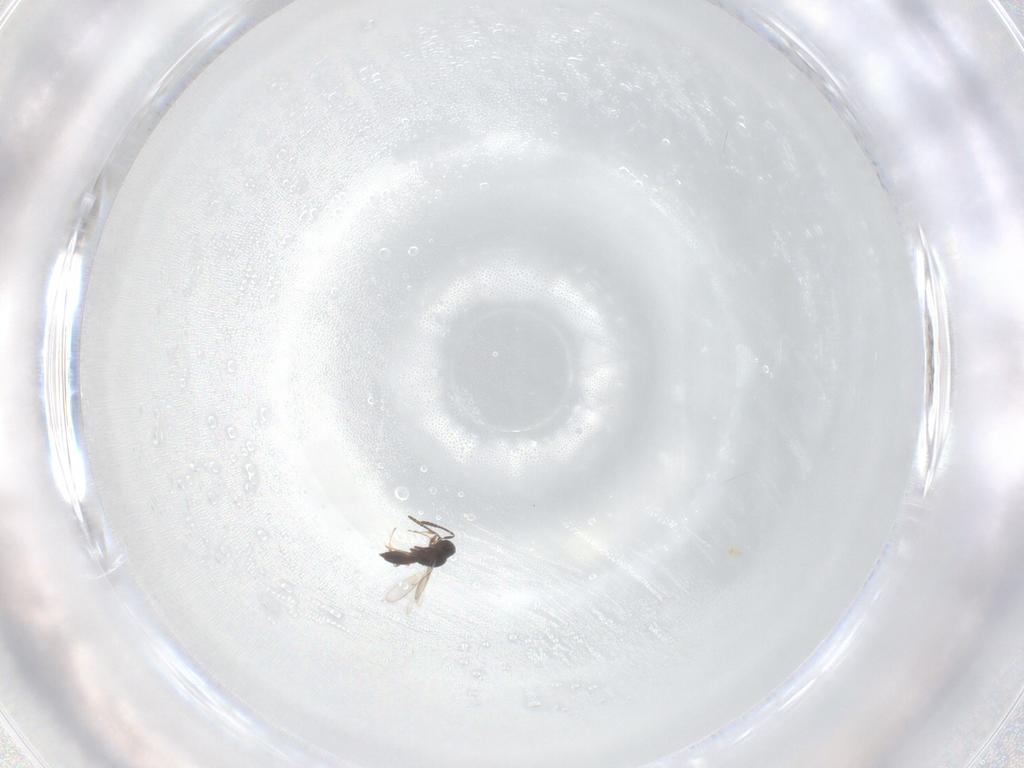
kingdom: Animalia
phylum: Arthropoda
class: Insecta
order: Hymenoptera
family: Scelionidae
